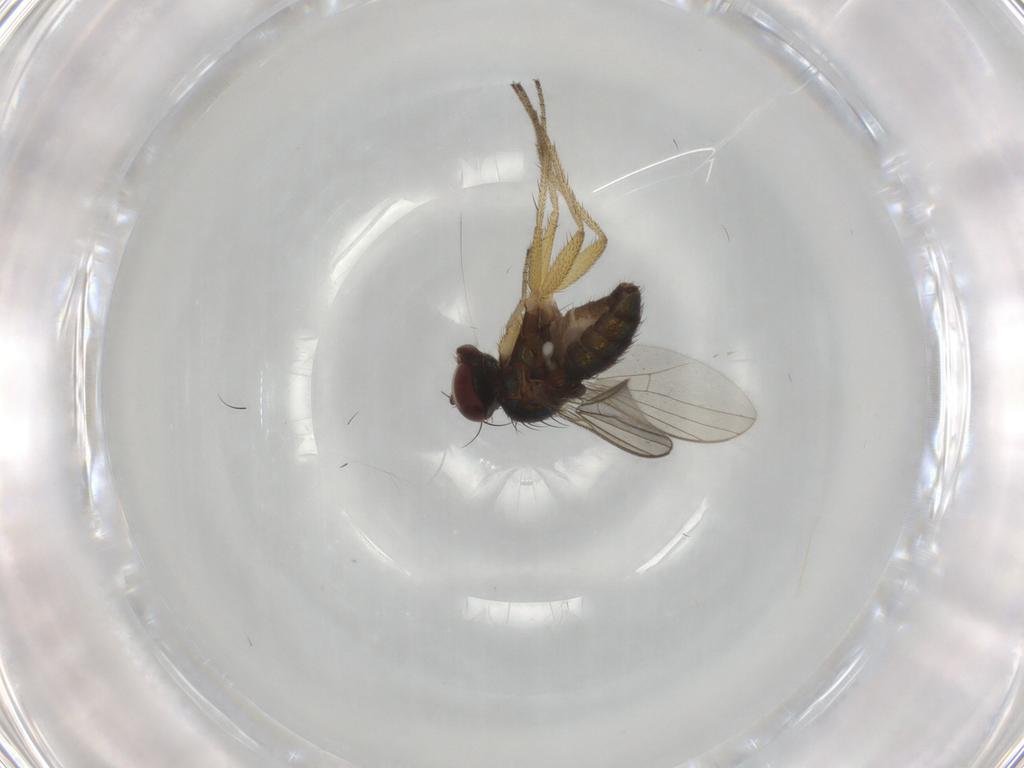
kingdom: Animalia
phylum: Arthropoda
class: Insecta
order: Diptera
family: Dolichopodidae
